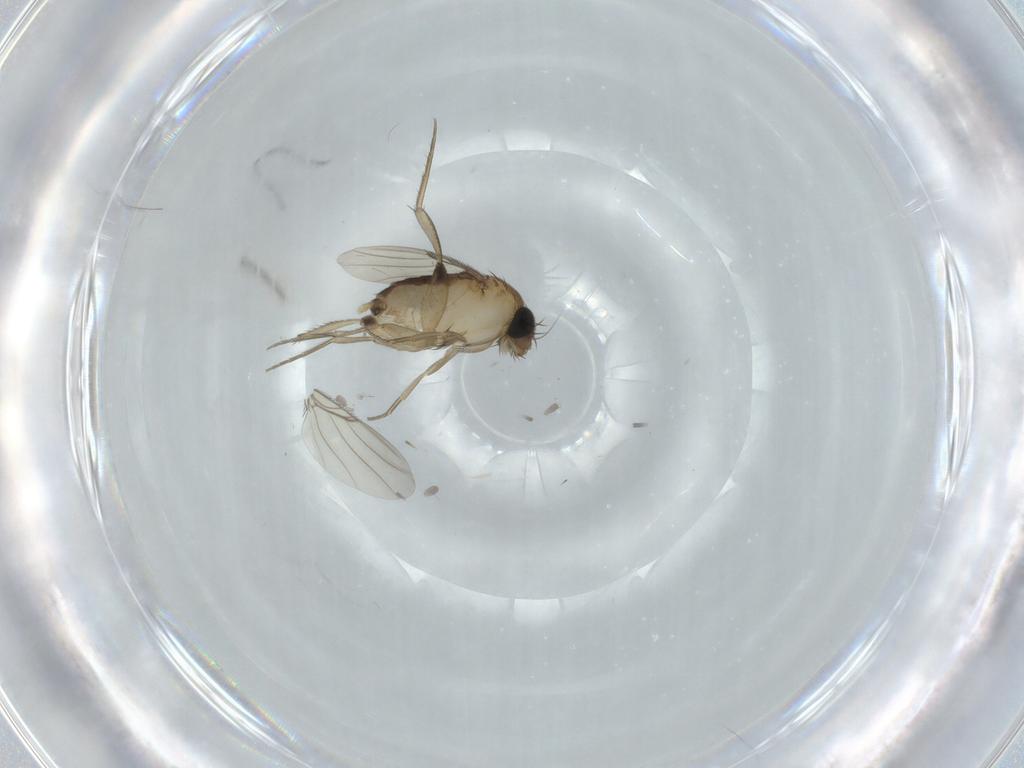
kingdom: Animalia
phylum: Arthropoda
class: Insecta
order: Diptera
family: Phoridae
